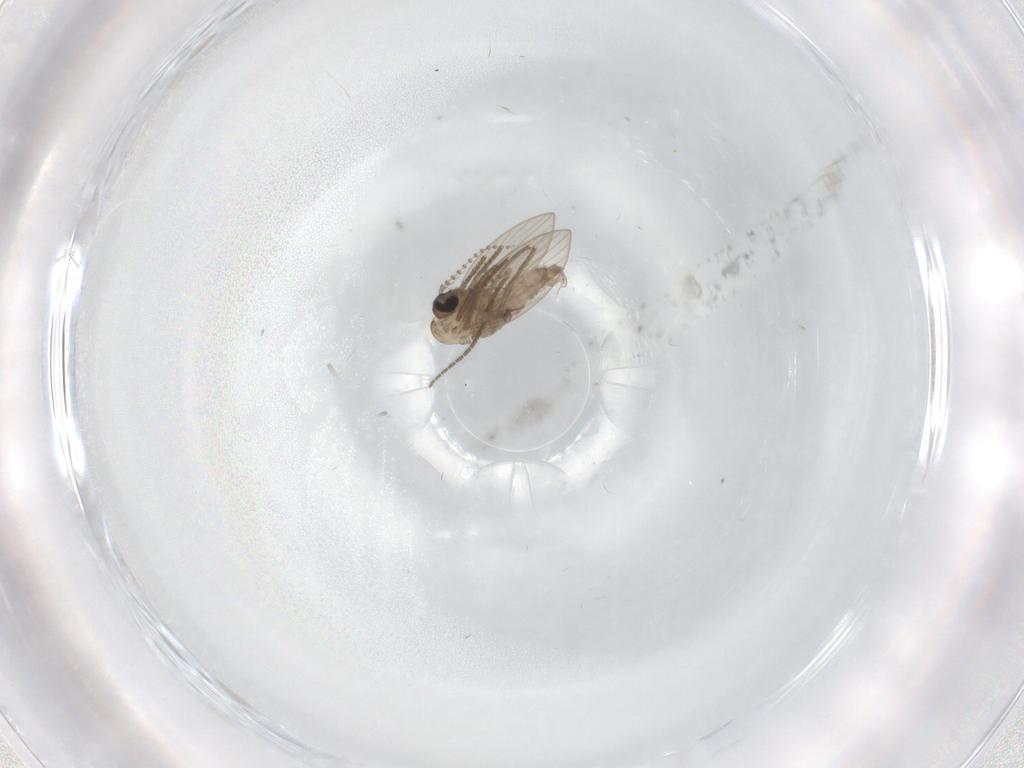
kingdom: Animalia
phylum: Arthropoda
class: Insecta
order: Diptera
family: Psychodidae
